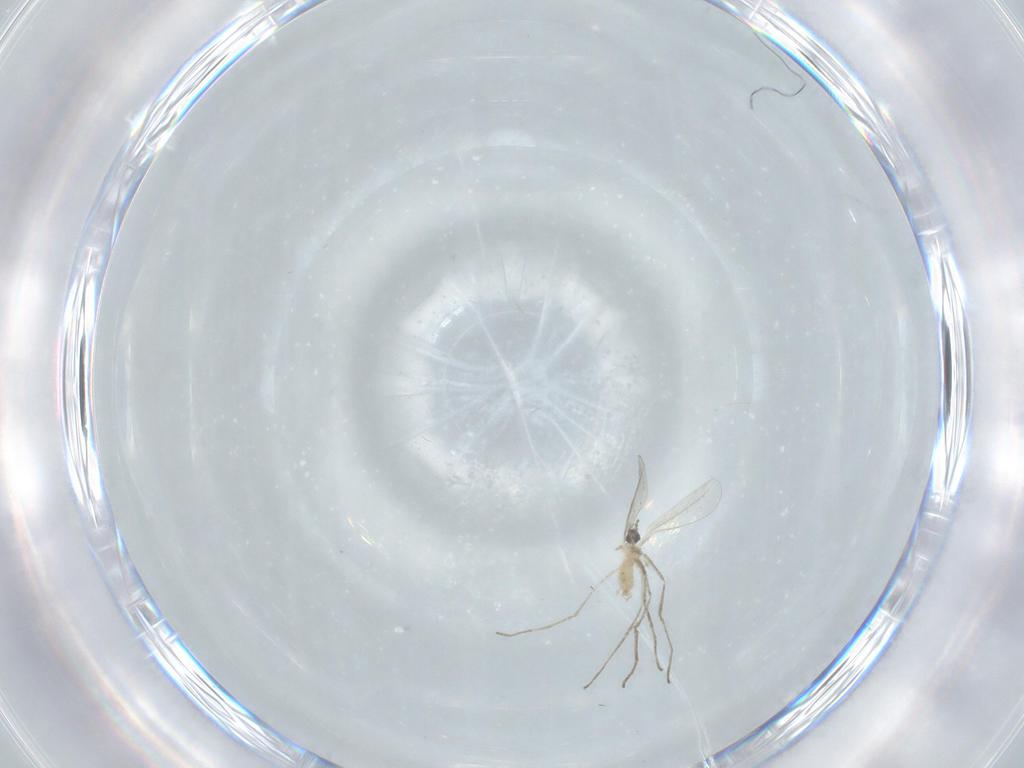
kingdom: Animalia
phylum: Arthropoda
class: Insecta
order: Diptera
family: Cecidomyiidae
